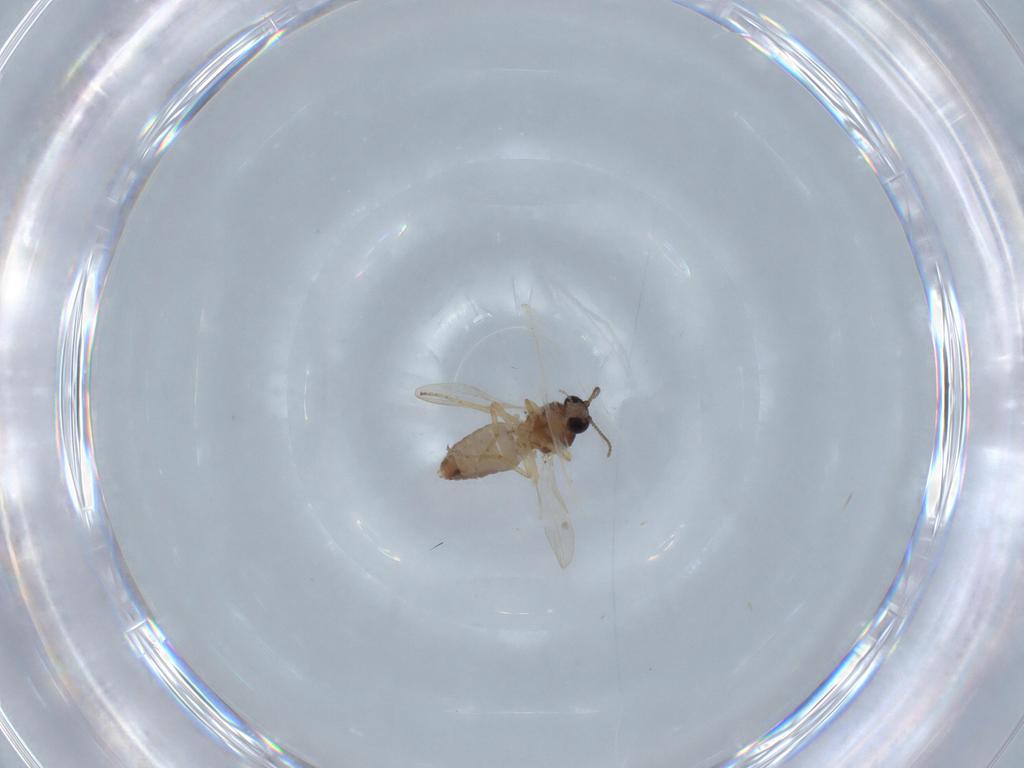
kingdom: Animalia
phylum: Arthropoda
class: Insecta
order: Diptera
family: Ceratopogonidae
